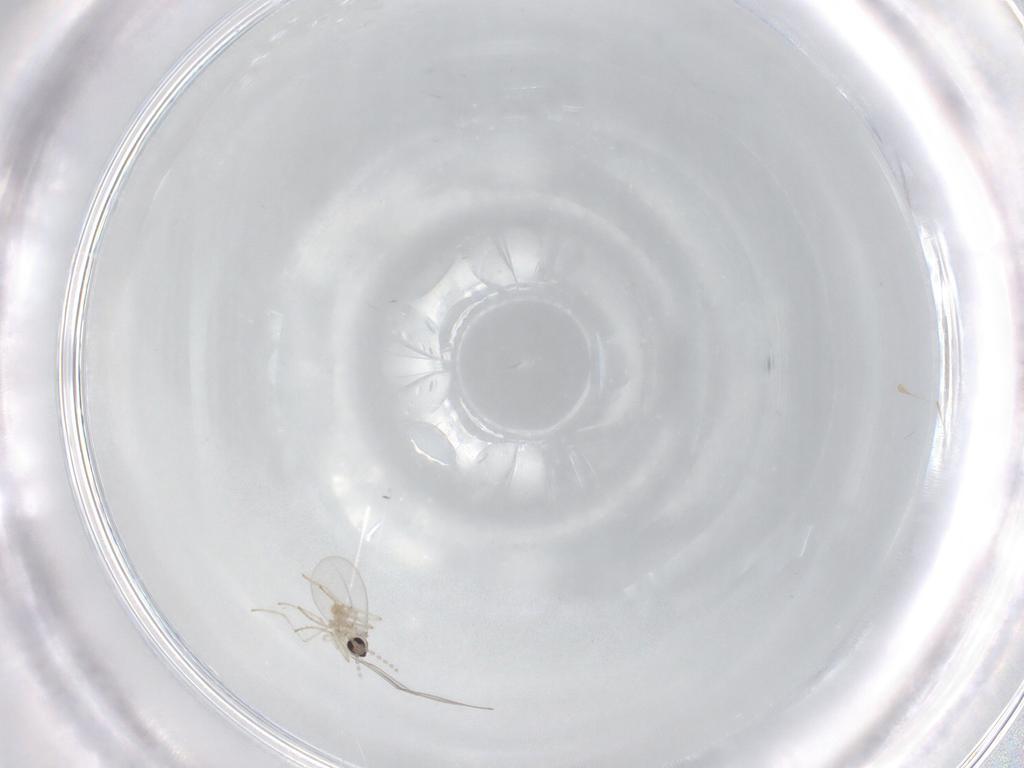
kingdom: Animalia
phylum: Arthropoda
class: Insecta
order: Diptera
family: Cecidomyiidae
